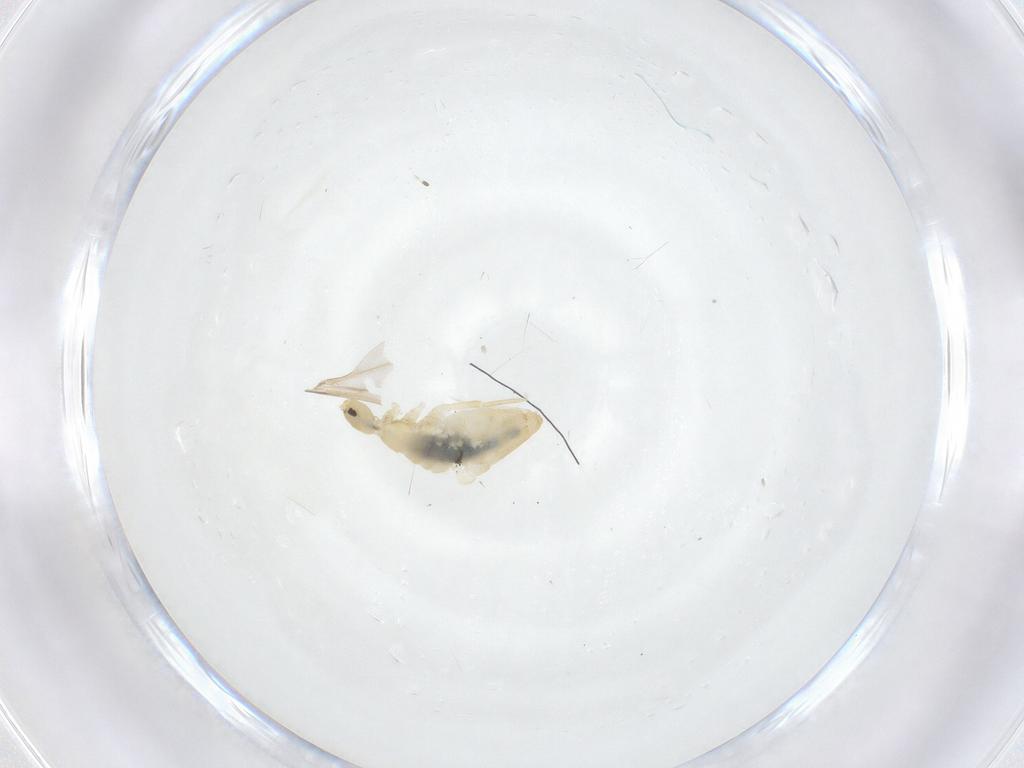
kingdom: Animalia
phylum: Arthropoda
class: Collembola
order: Entomobryomorpha
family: Entomobryidae
